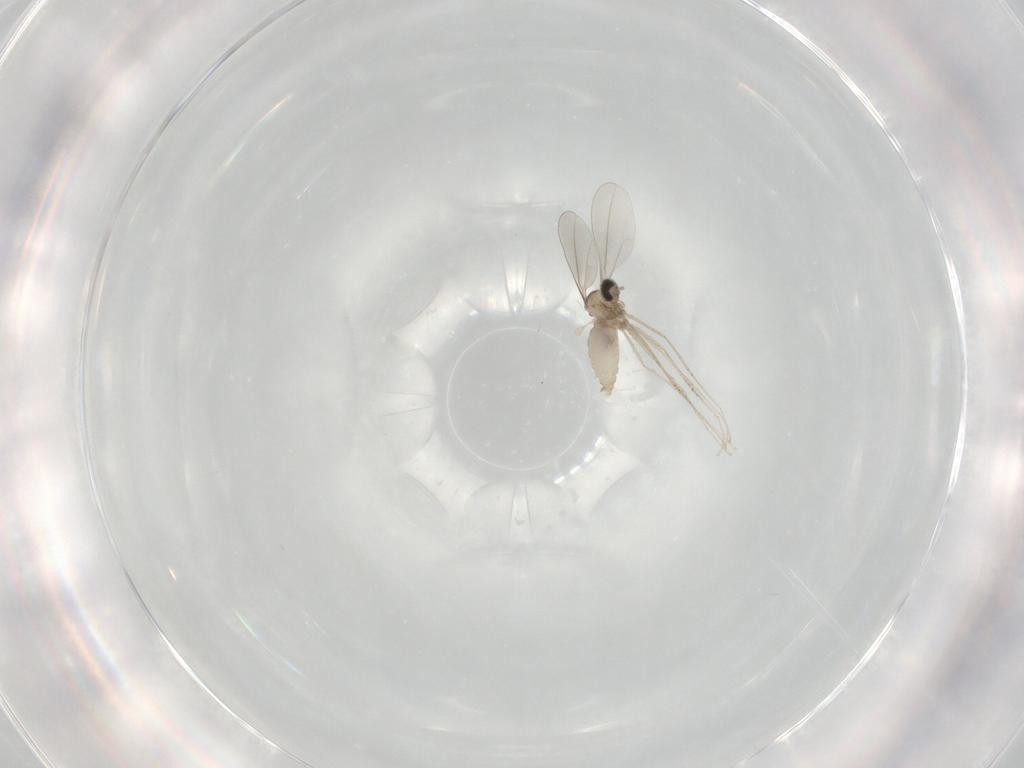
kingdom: Animalia
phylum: Arthropoda
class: Insecta
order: Diptera
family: Cecidomyiidae
